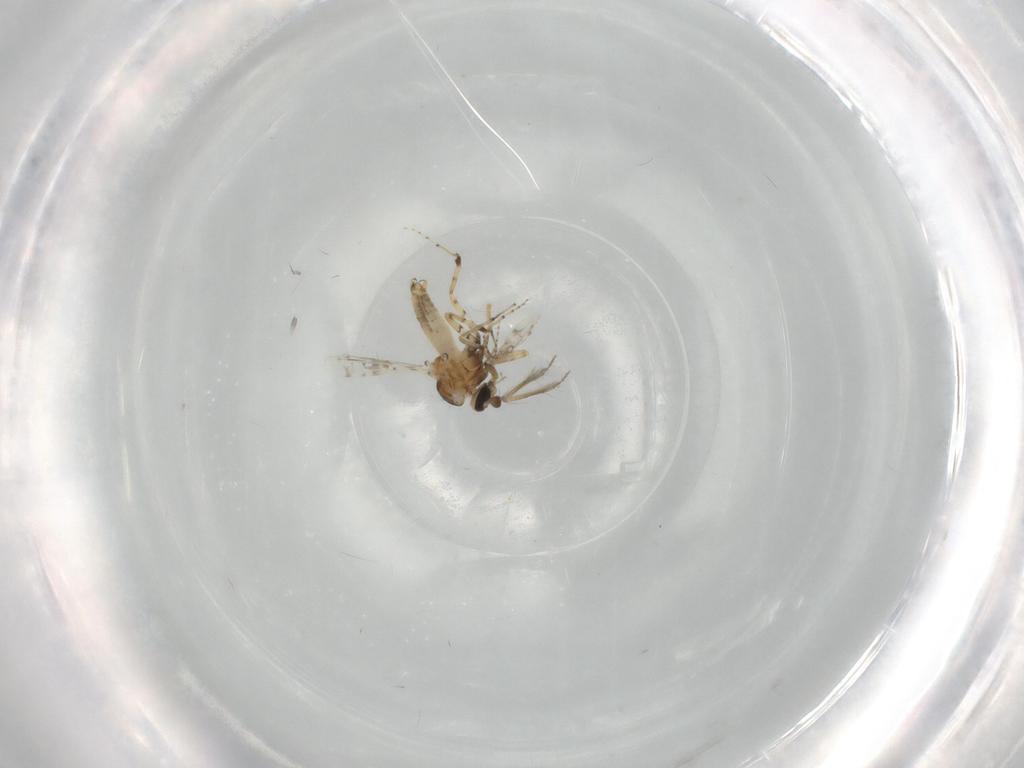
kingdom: Animalia
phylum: Arthropoda
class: Insecta
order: Diptera
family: Ceratopogonidae
